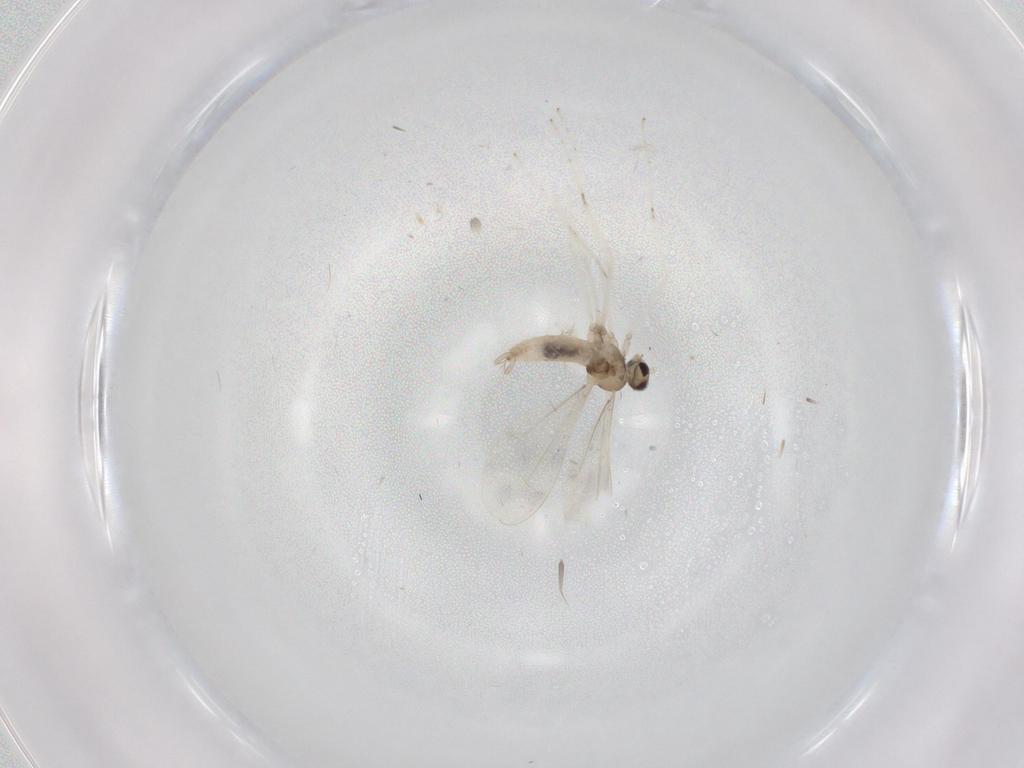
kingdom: Animalia
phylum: Arthropoda
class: Insecta
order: Diptera
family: Cecidomyiidae
